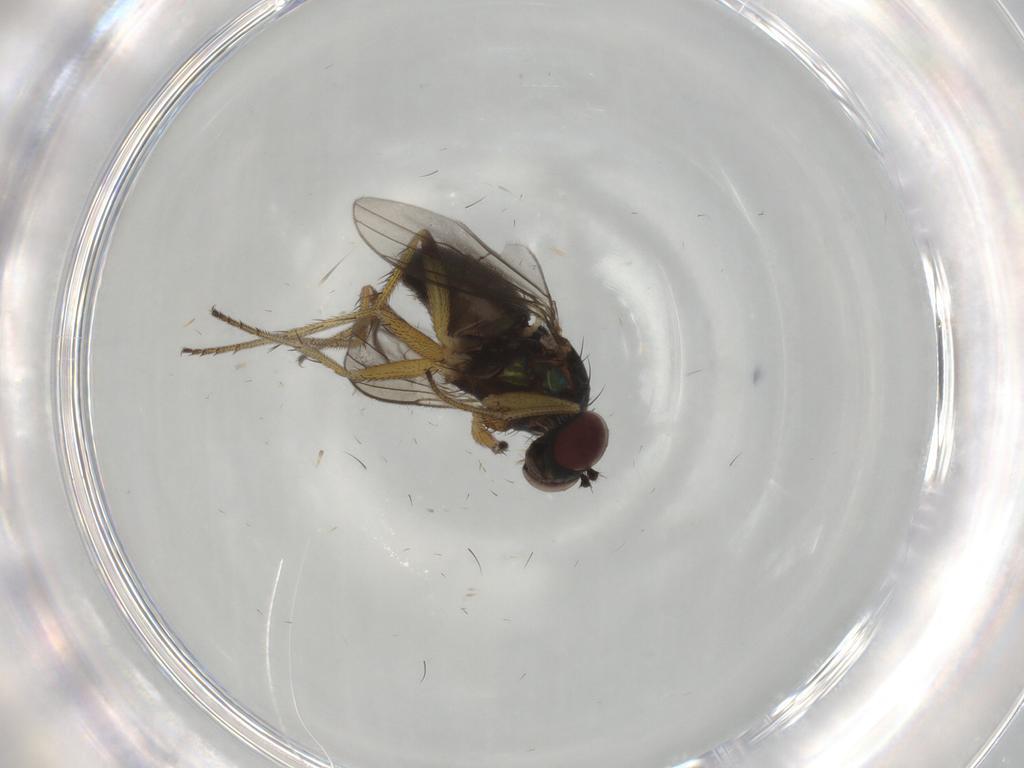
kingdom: Animalia
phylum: Arthropoda
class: Insecta
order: Diptera
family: Dolichopodidae
